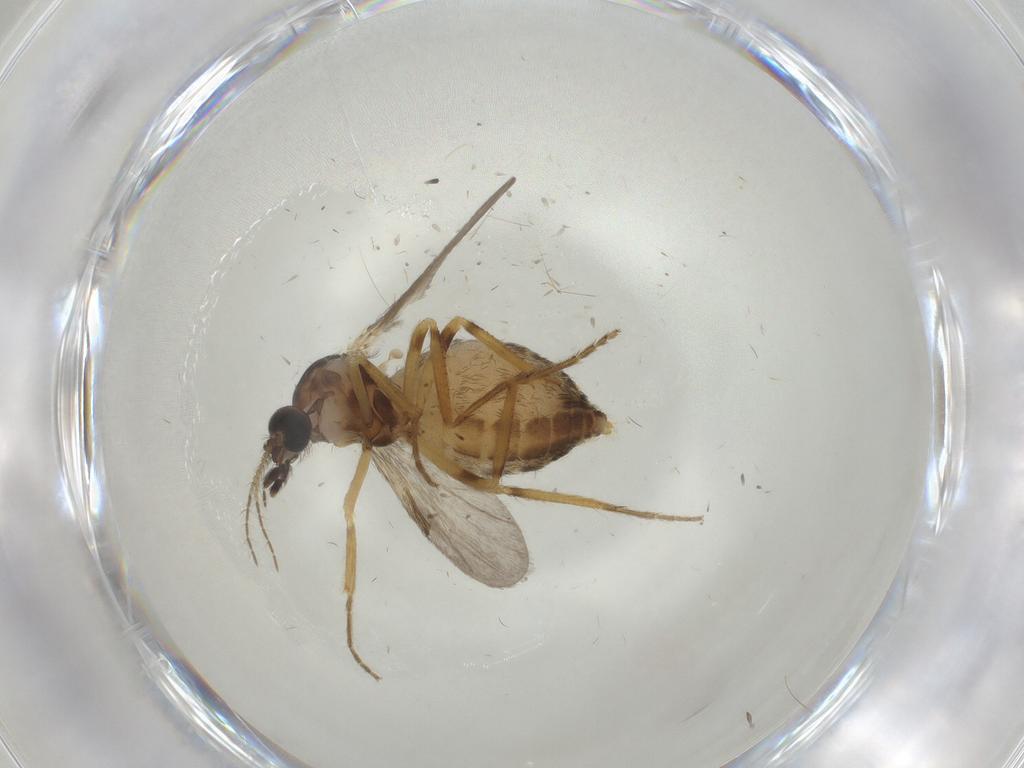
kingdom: Animalia
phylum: Arthropoda
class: Insecta
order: Diptera
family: Ceratopogonidae
